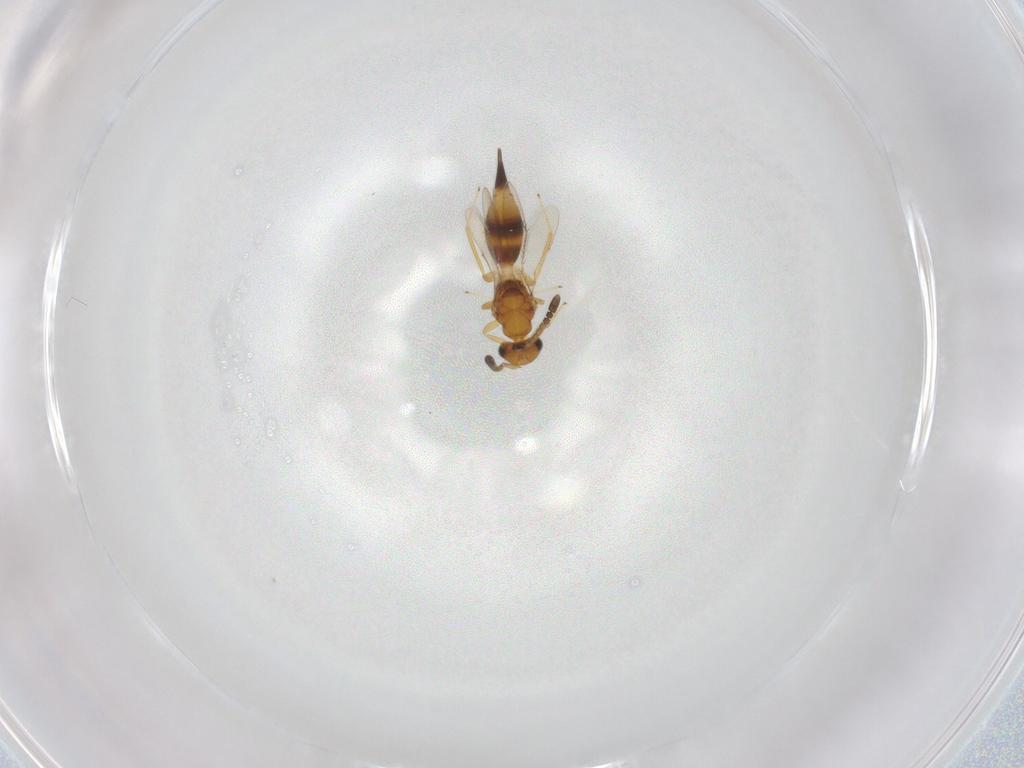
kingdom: Animalia
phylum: Arthropoda
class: Insecta
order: Hymenoptera
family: Diparidae
